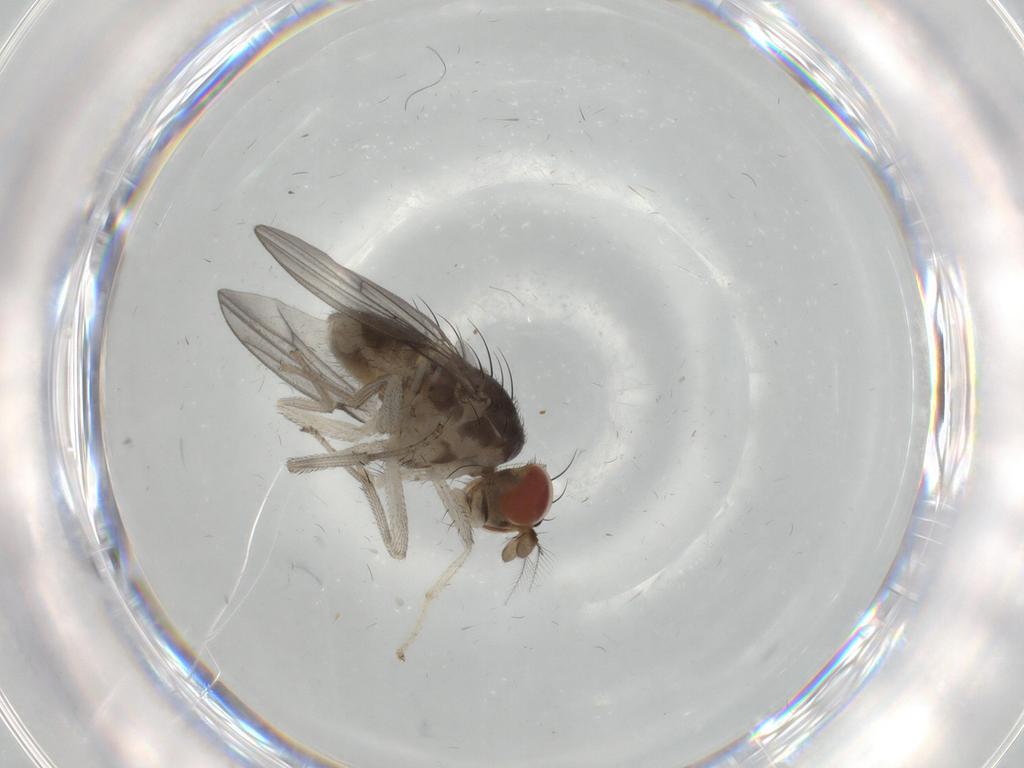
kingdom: Animalia
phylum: Arthropoda
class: Insecta
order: Diptera
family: Lauxaniidae
